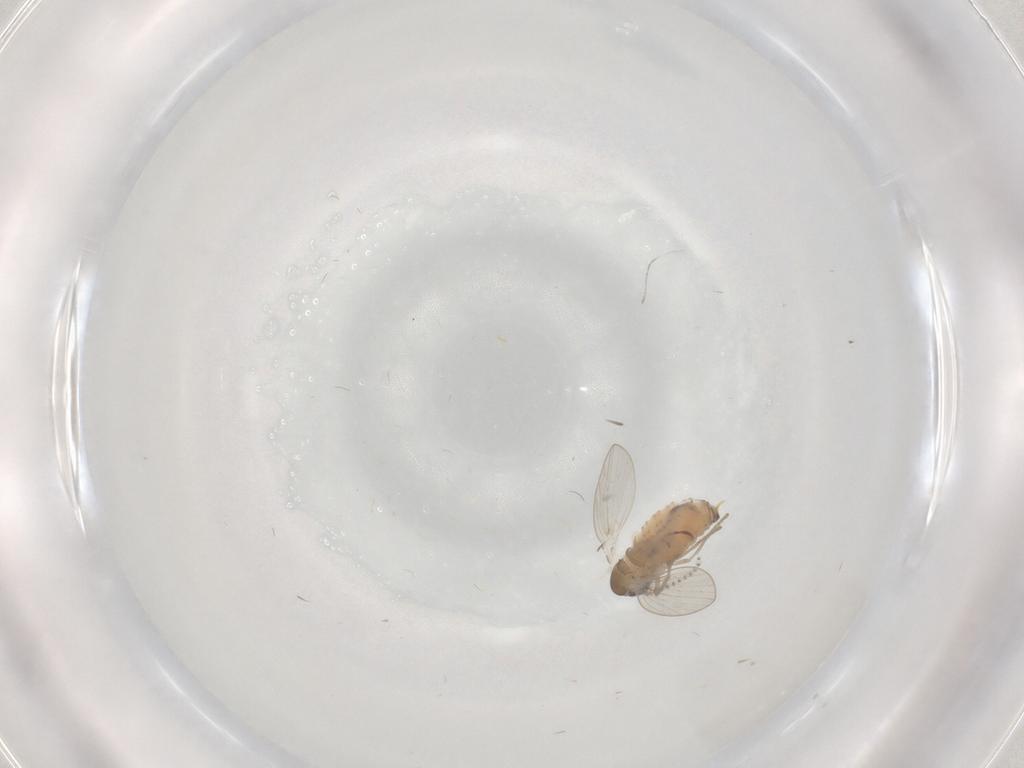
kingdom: Animalia
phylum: Arthropoda
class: Insecta
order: Diptera
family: Psychodidae
